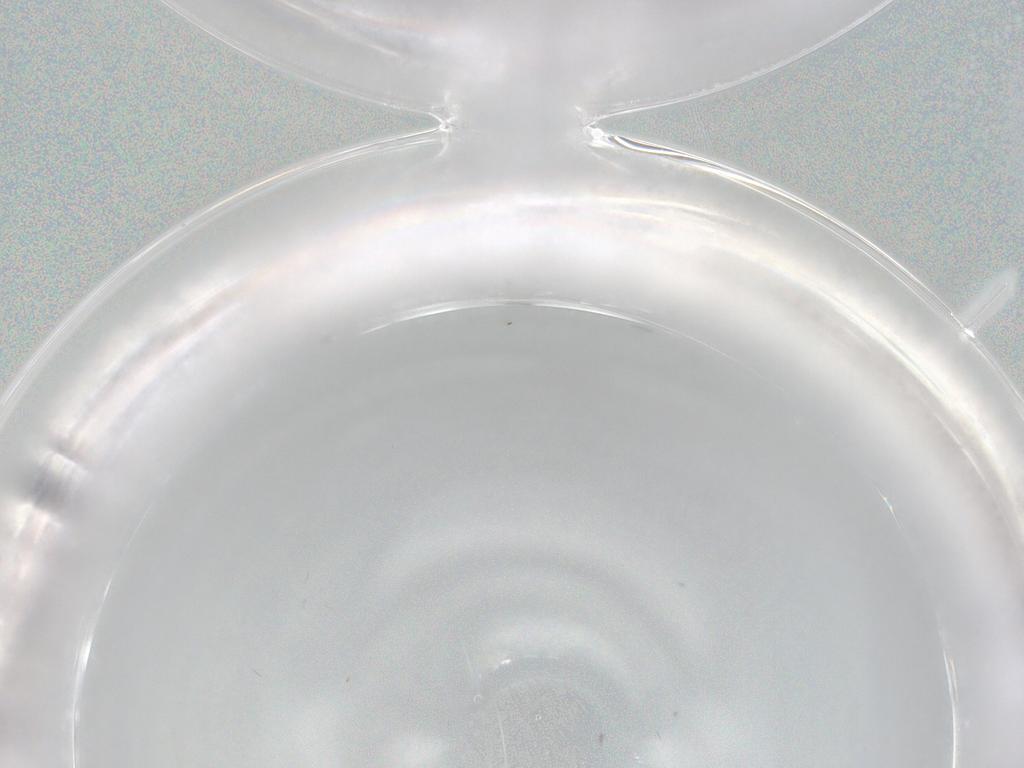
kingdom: Animalia
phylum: Arthropoda
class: Insecta
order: Diptera
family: Phoridae
